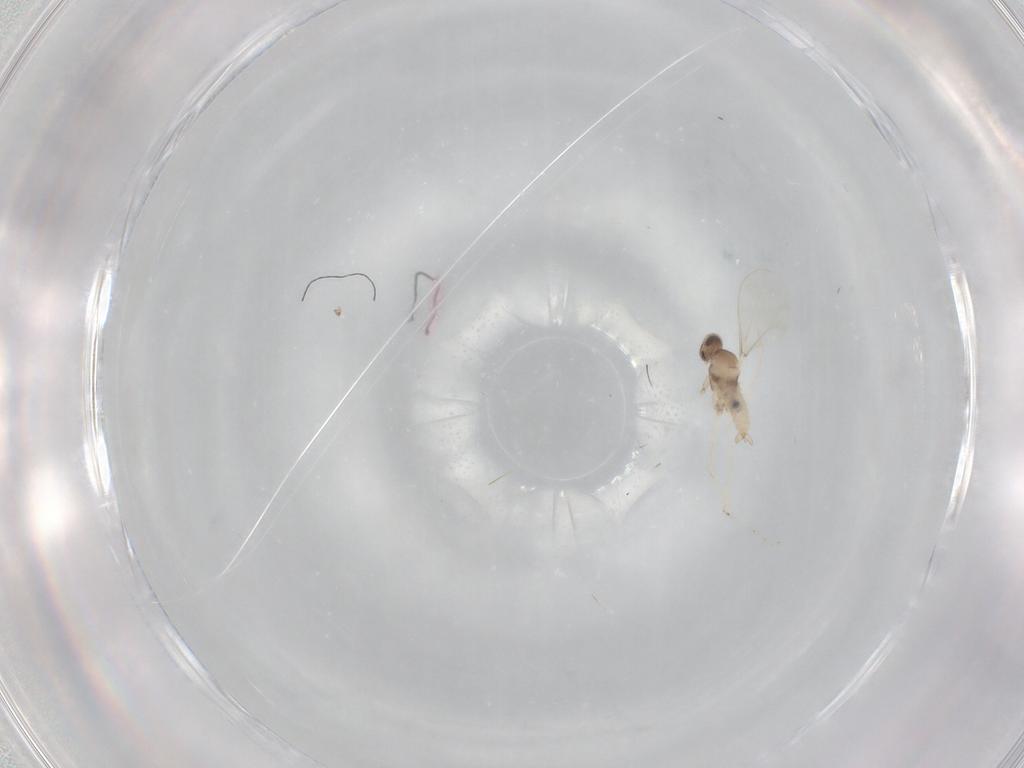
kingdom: Animalia
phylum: Arthropoda
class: Insecta
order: Diptera
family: Cecidomyiidae
